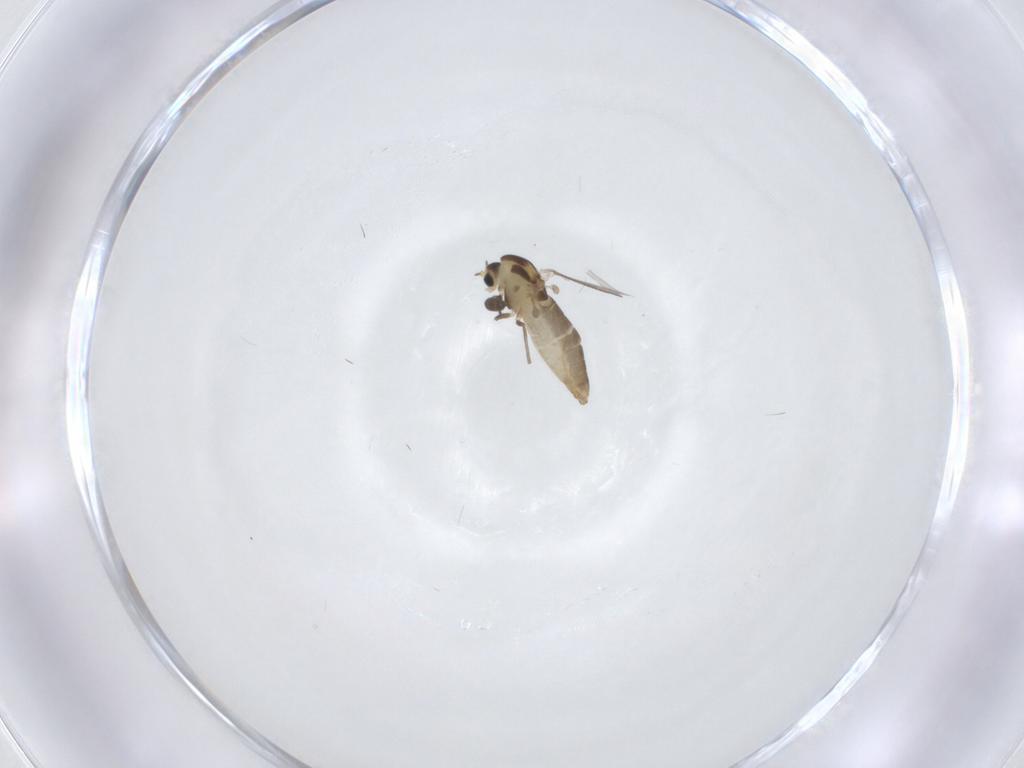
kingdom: Animalia
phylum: Arthropoda
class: Insecta
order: Diptera
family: Chironomidae
